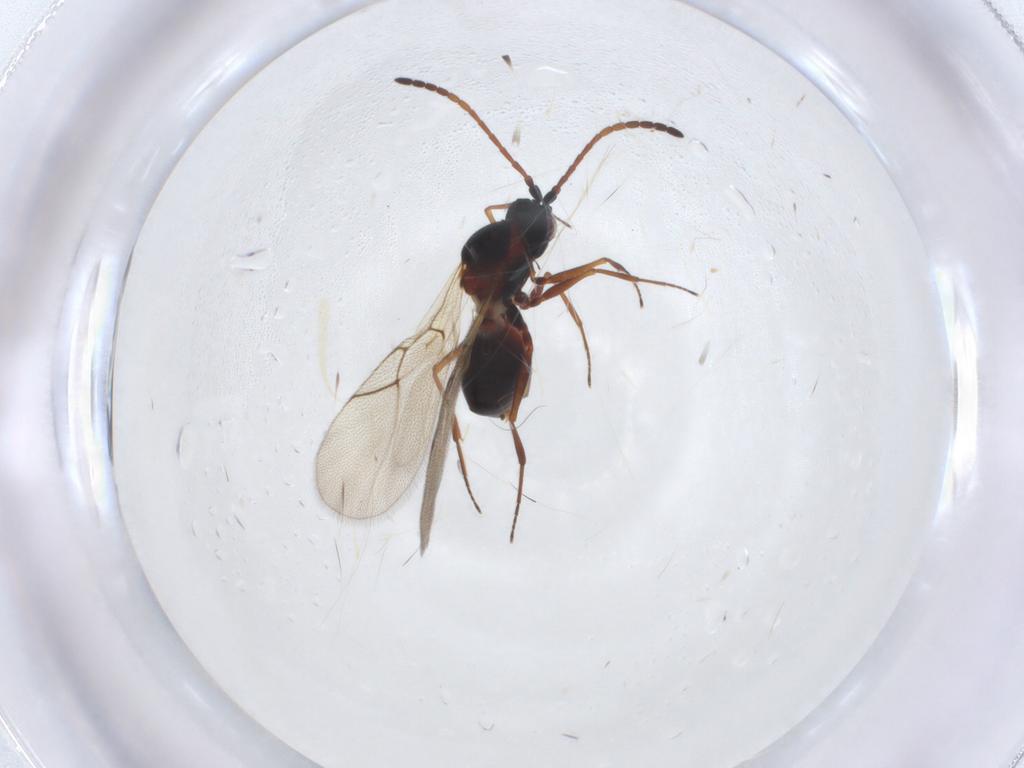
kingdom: Animalia
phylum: Arthropoda
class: Insecta
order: Hymenoptera
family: Figitidae
